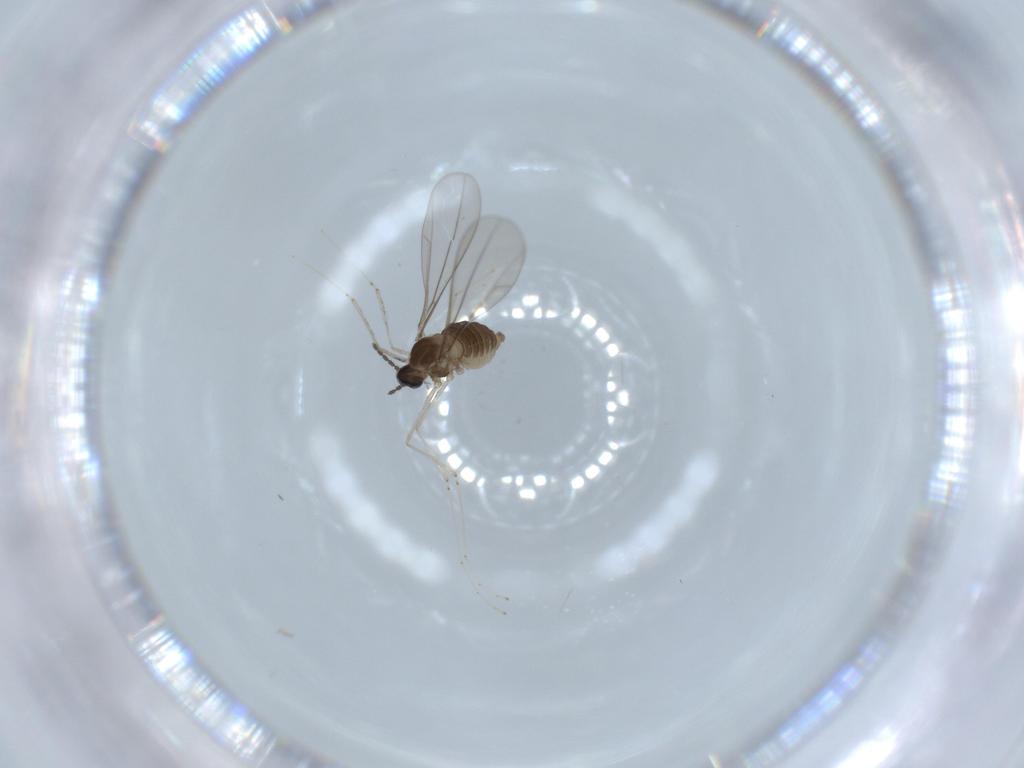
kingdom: Animalia
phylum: Arthropoda
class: Insecta
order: Diptera
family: Cecidomyiidae
